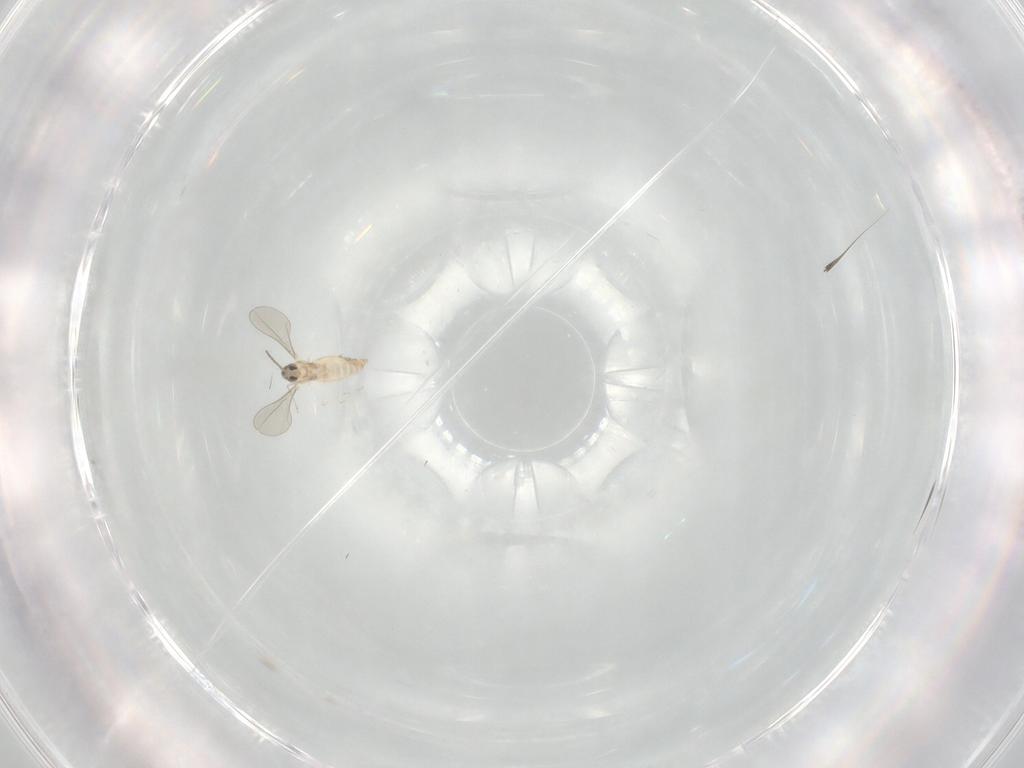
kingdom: Animalia
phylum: Arthropoda
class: Insecta
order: Diptera
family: Cecidomyiidae
